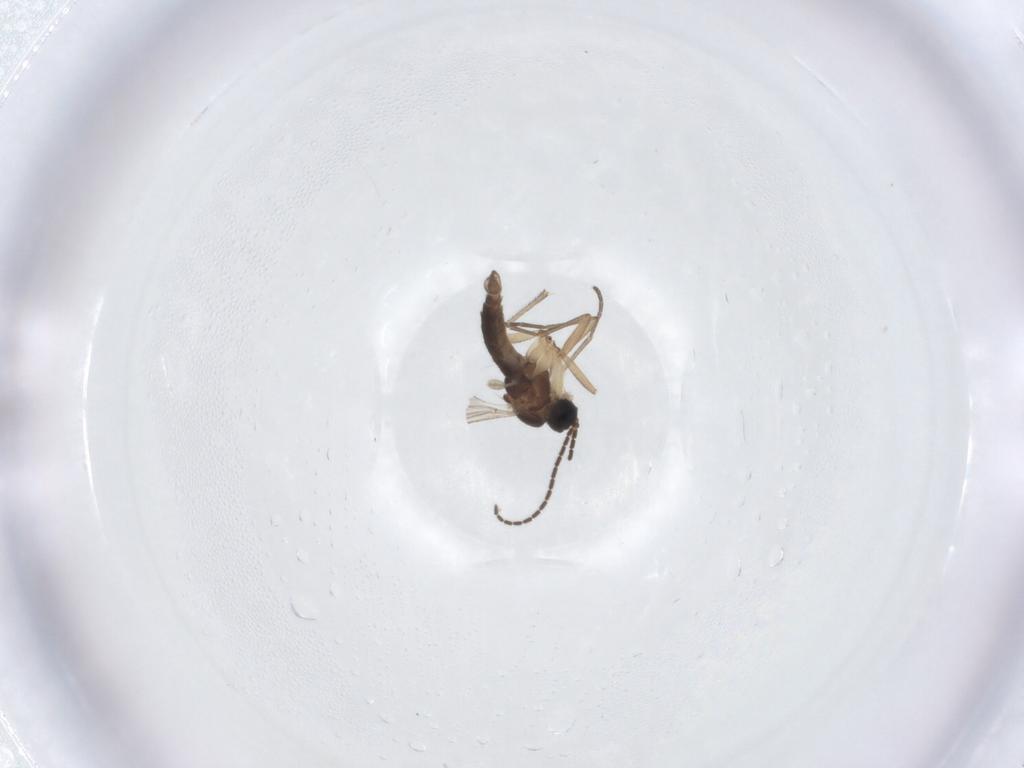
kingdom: Animalia
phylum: Arthropoda
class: Insecta
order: Diptera
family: Sciaridae
